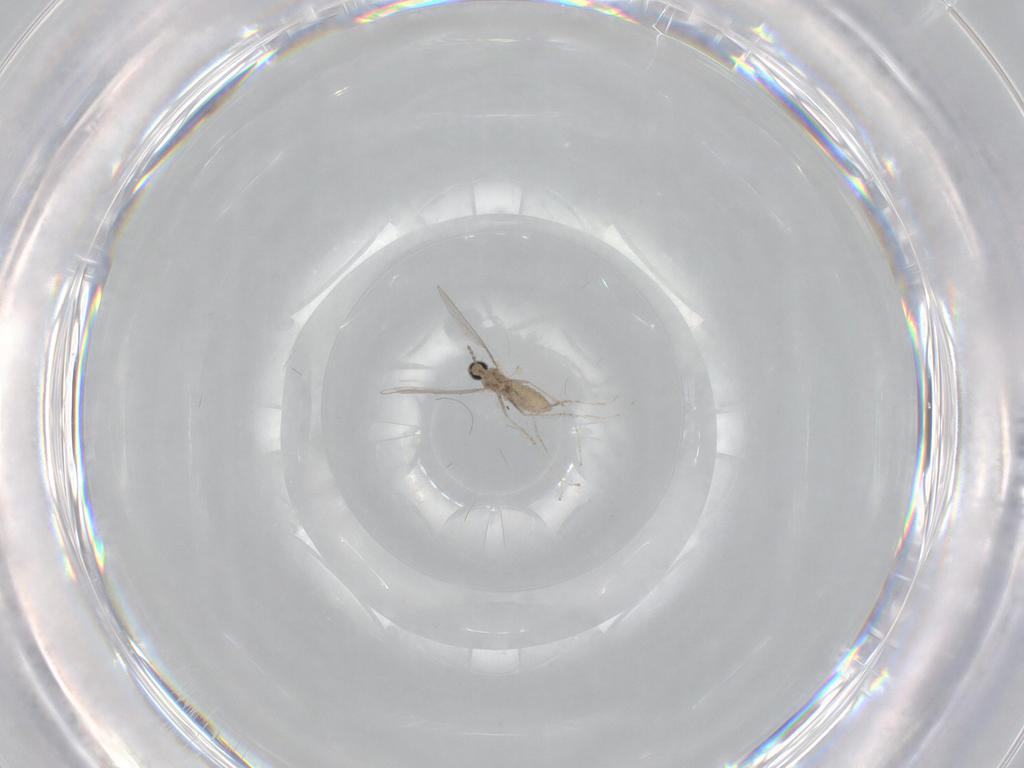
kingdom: Animalia
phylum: Arthropoda
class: Insecta
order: Diptera
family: Cecidomyiidae
